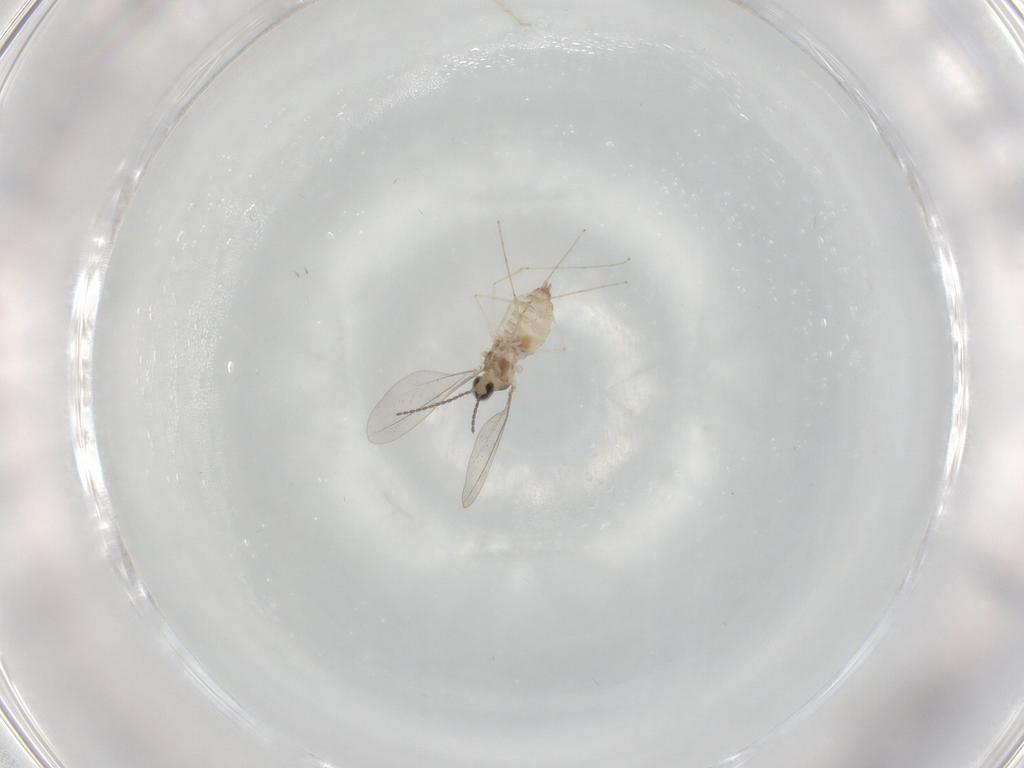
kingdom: Animalia
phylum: Arthropoda
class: Insecta
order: Diptera
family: Cecidomyiidae
